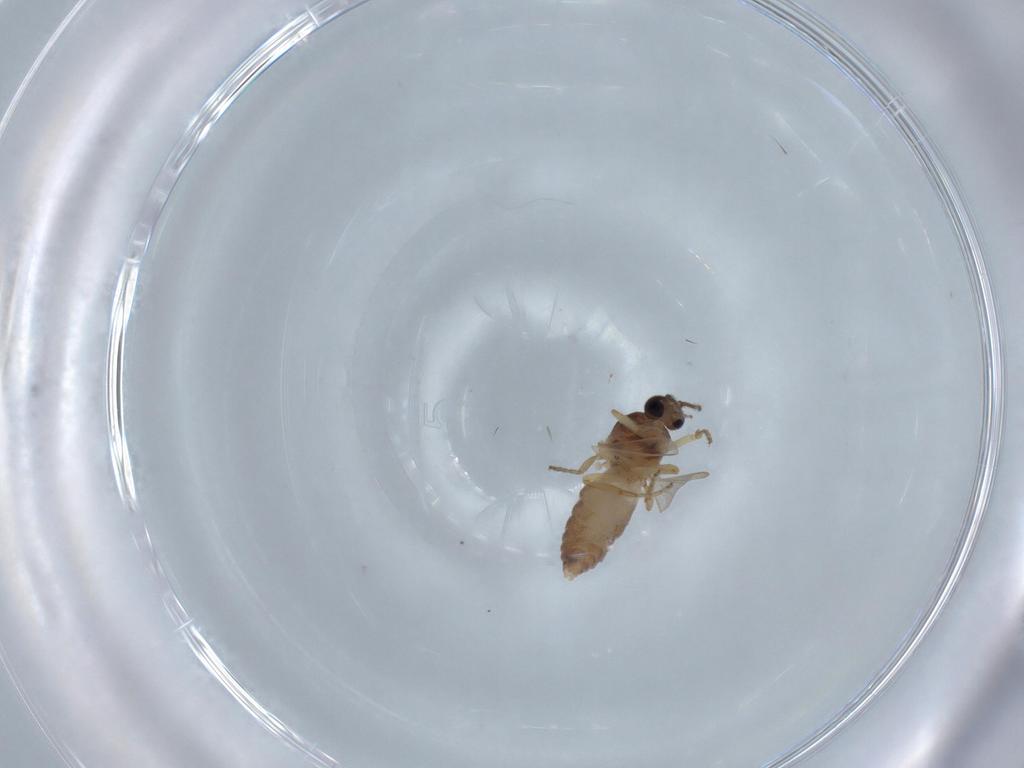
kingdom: Animalia
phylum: Arthropoda
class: Insecta
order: Diptera
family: Ceratopogonidae
